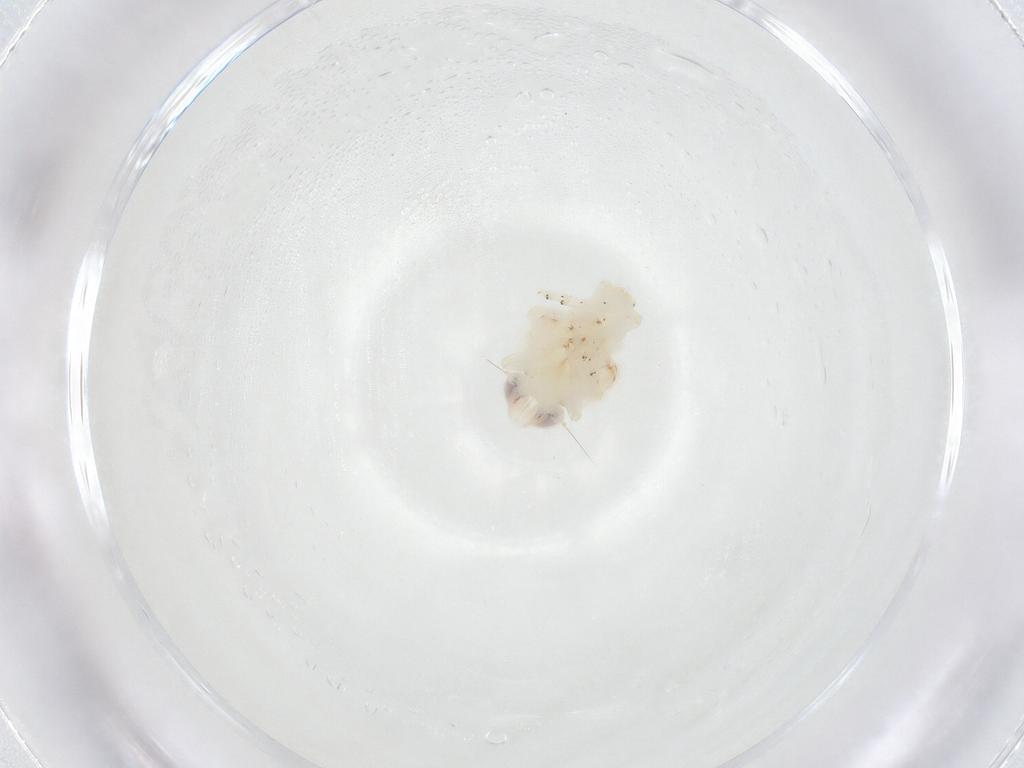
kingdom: Animalia
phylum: Arthropoda
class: Insecta
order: Hemiptera
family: Nogodinidae
